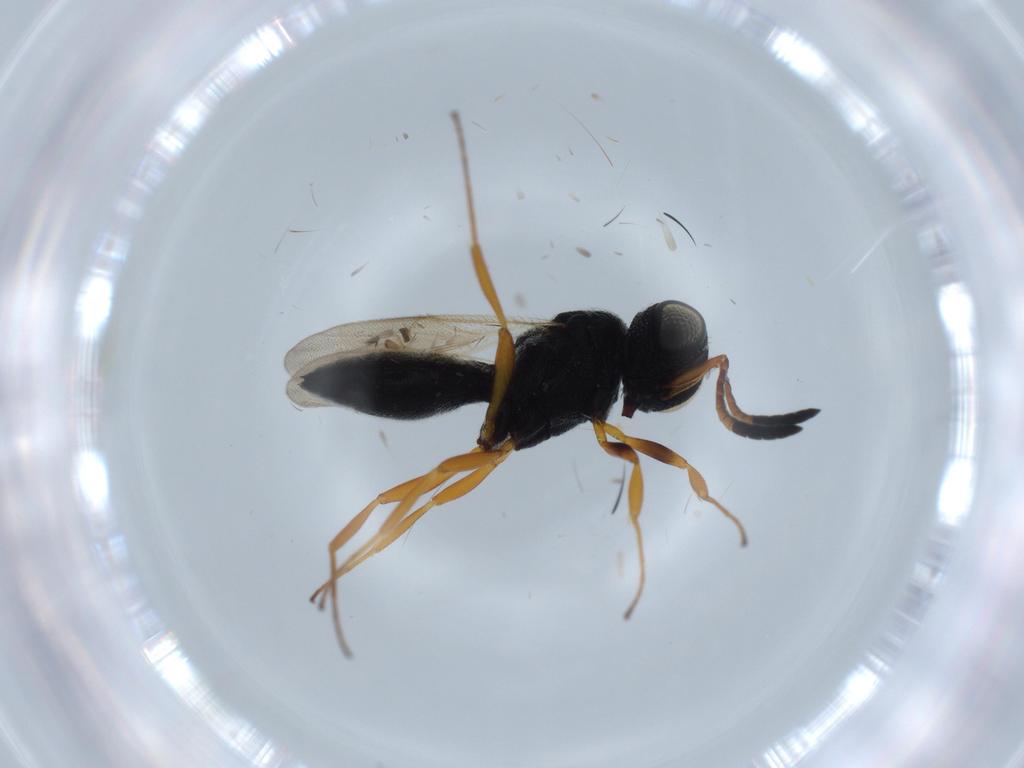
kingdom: Animalia
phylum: Arthropoda
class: Insecta
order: Hymenoptera
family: Scelionidae
